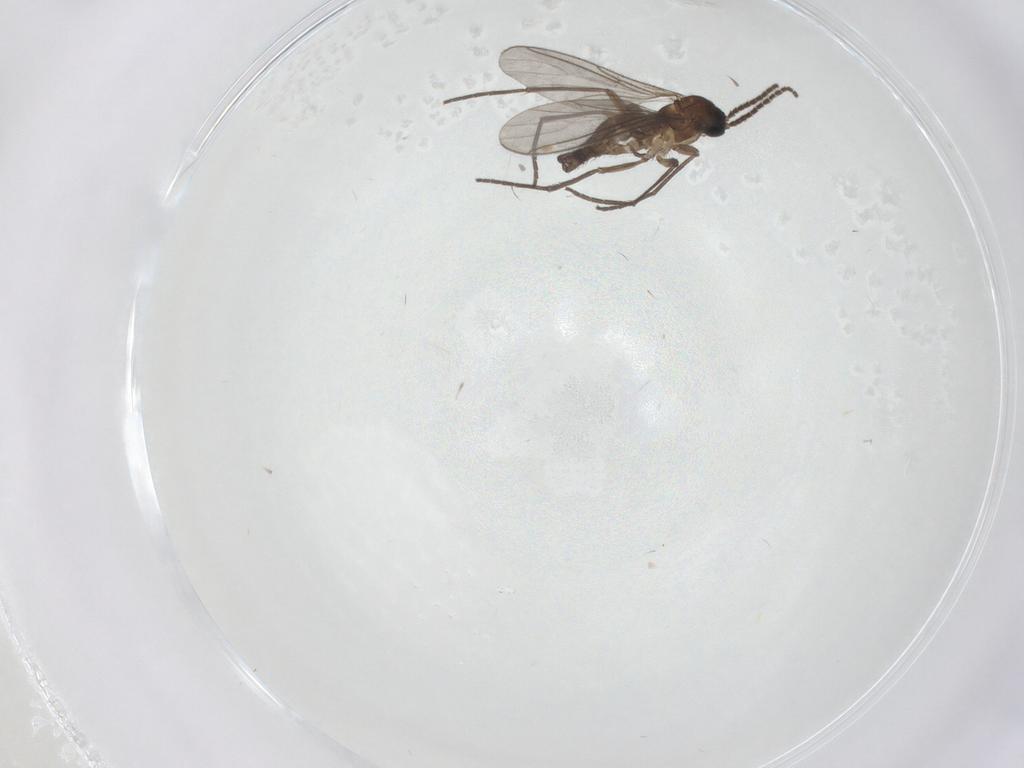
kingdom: Animalia
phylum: Arthropoda
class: Insecta
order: Diptera
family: Sciaridae
